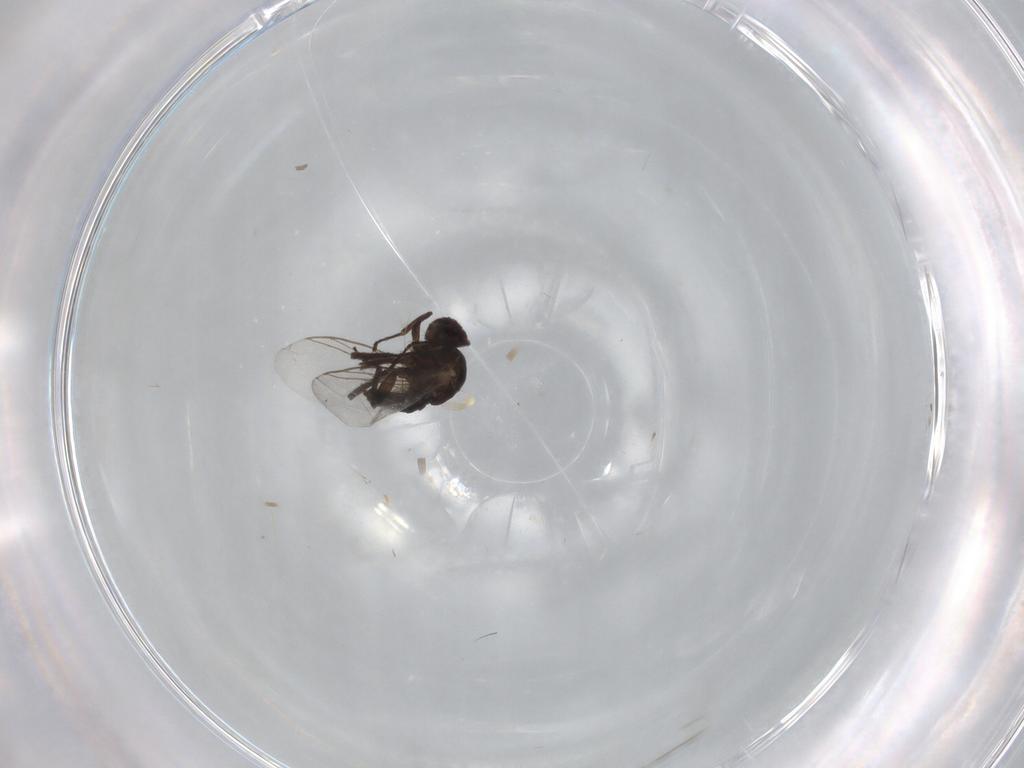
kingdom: Animalia
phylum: Arthropoda
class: Insecta
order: Diptera
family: Agromyzidae
